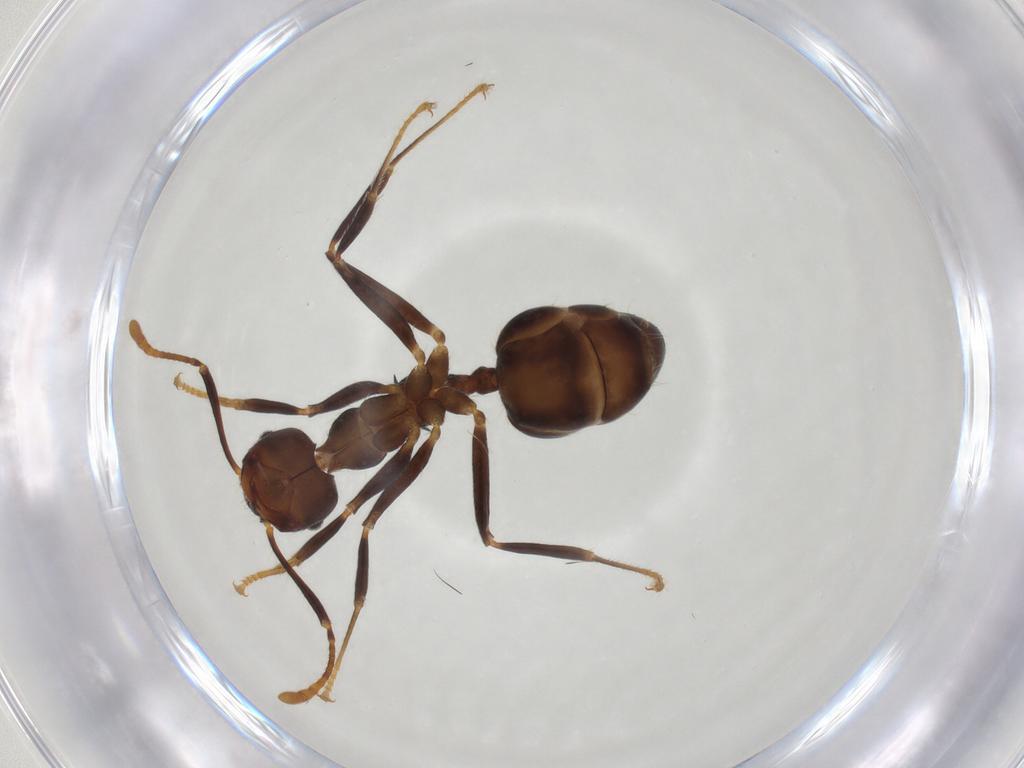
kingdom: Animalia
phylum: Arthropoda
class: Insecta
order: Hymenoptera
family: Formicidae
